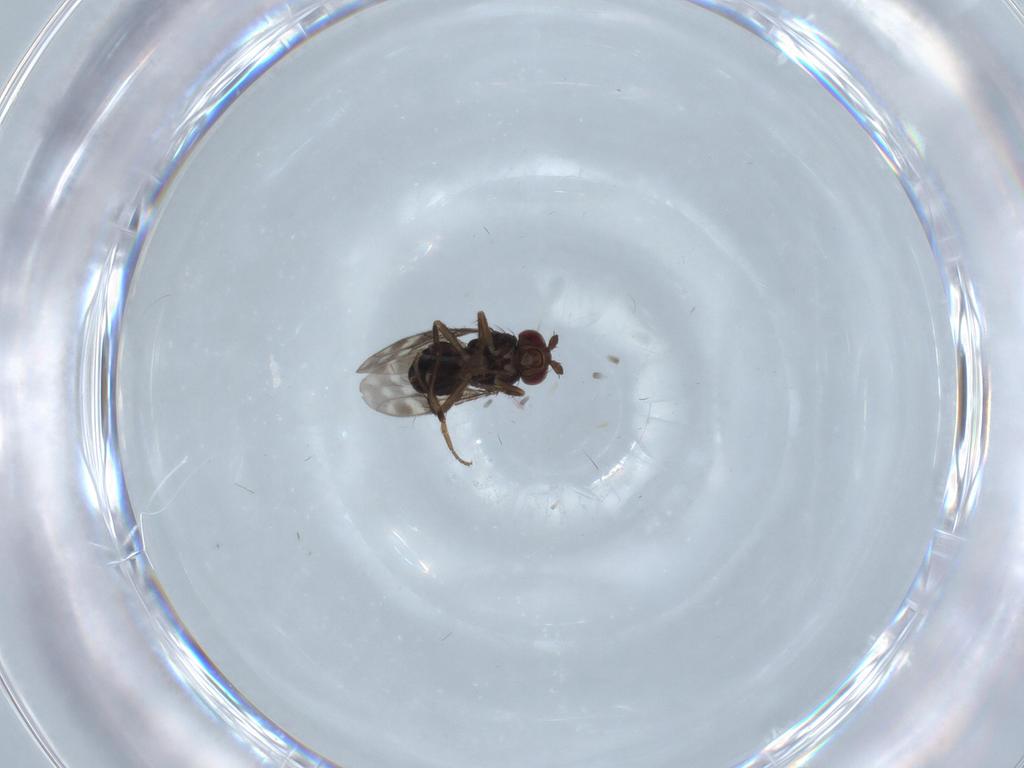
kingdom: Animalia
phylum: Arthropoda
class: Insecta
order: Diptera
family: Sphaeroceridae
